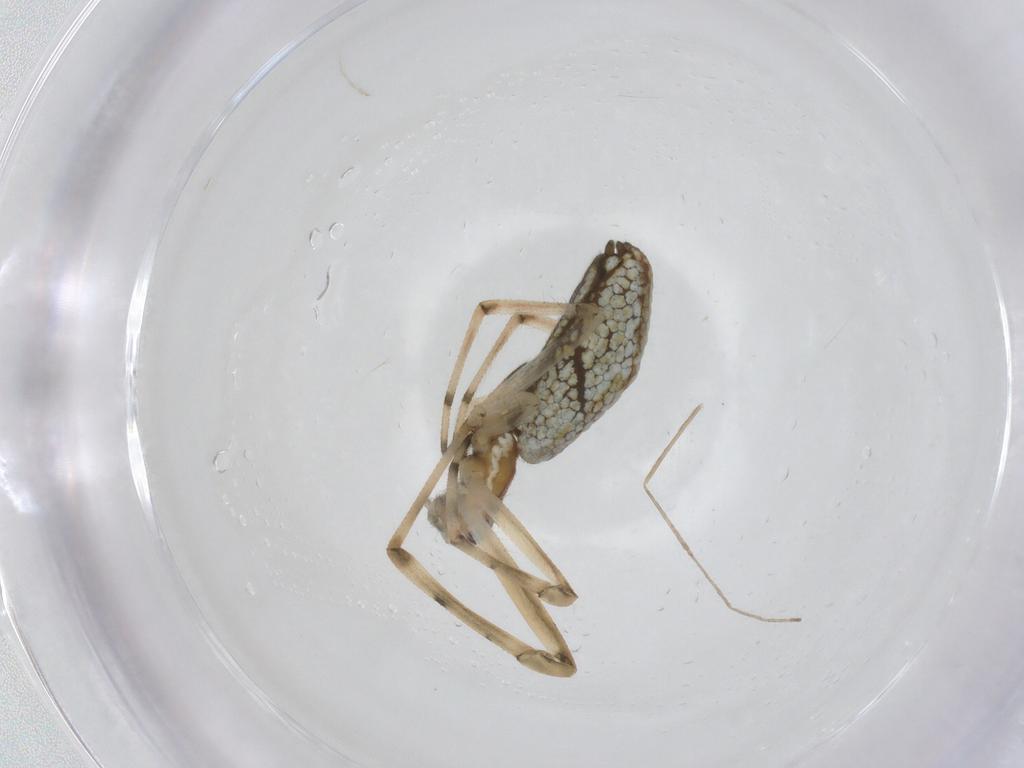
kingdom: Animalia
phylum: Arthropoda
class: Arachnida
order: Araneae
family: Tetragnathidae
